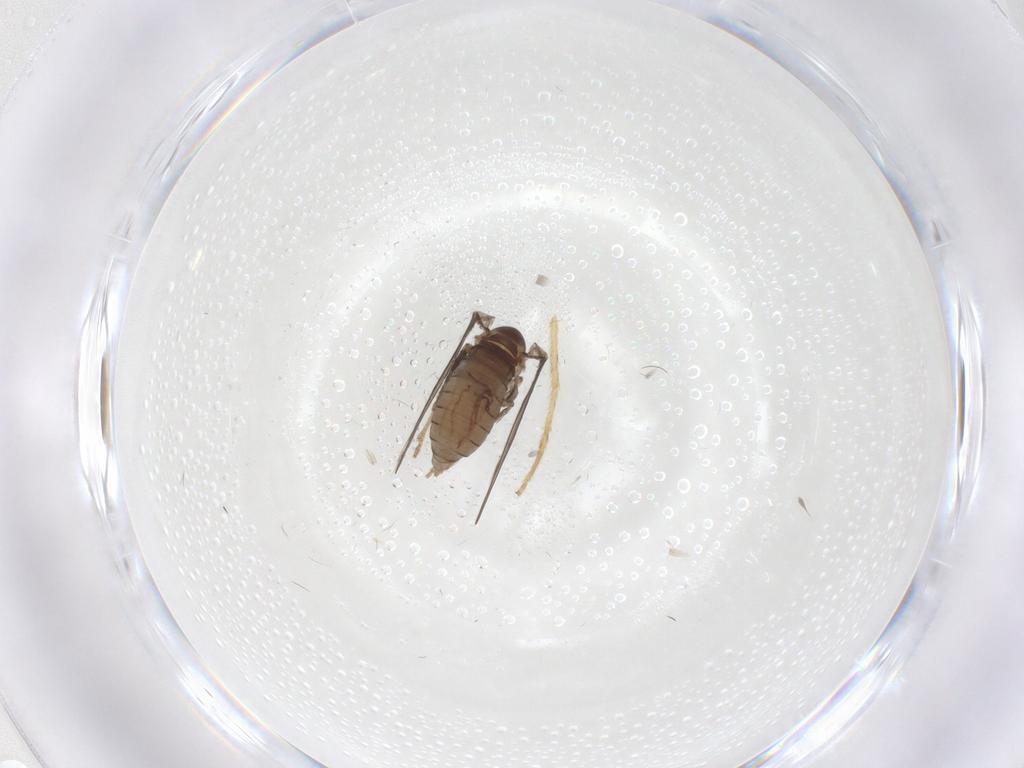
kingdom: Animalia
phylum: Arthropoda
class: Insecta
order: Diptera
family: Psychodidae
